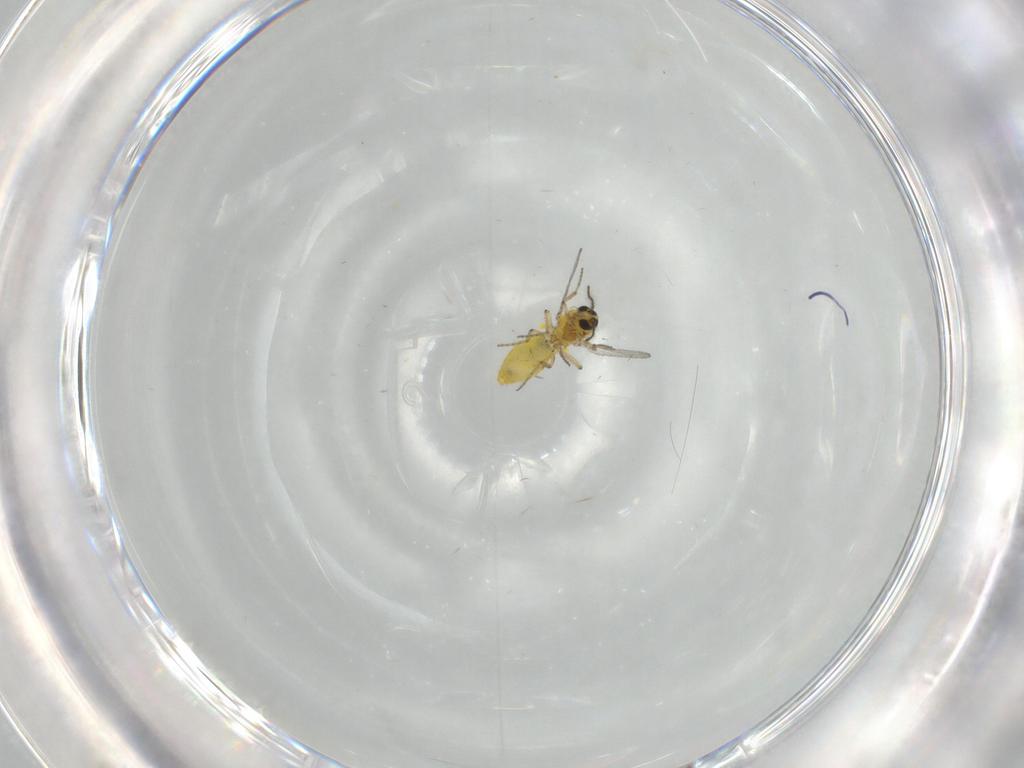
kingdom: Animalia
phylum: Arthropoda
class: Insecta
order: Diptera
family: Ceratopogonidae
